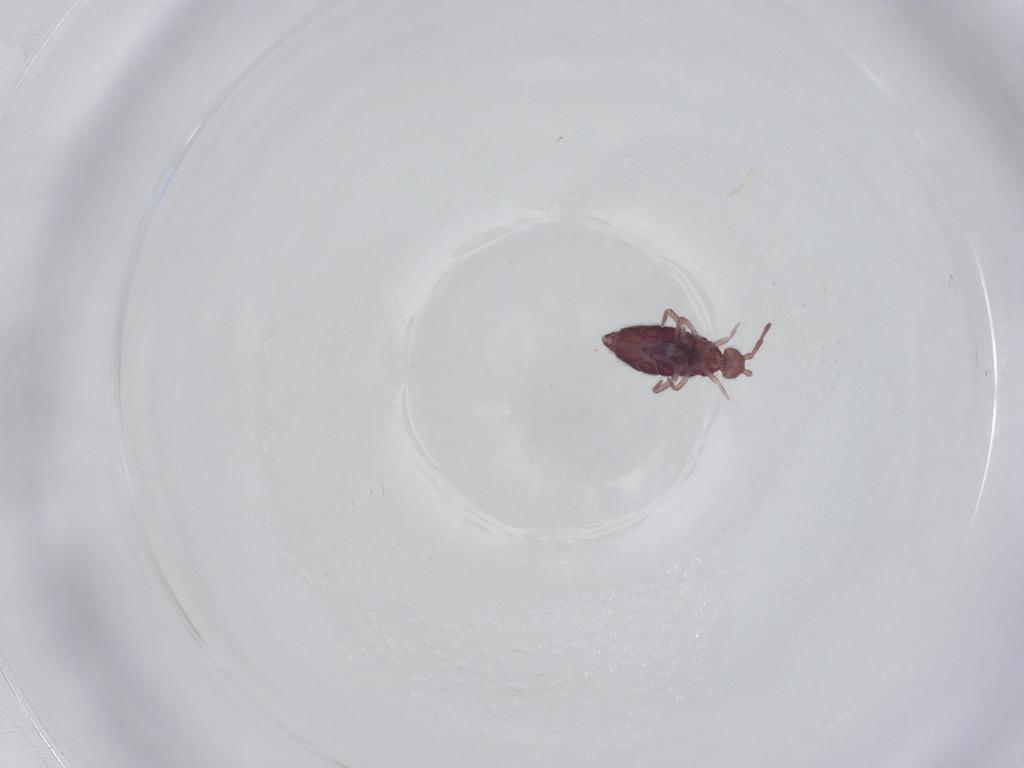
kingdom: Animalia
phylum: Arthropoda
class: Collembola
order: Entomobryomorpha
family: Entomobryidae
